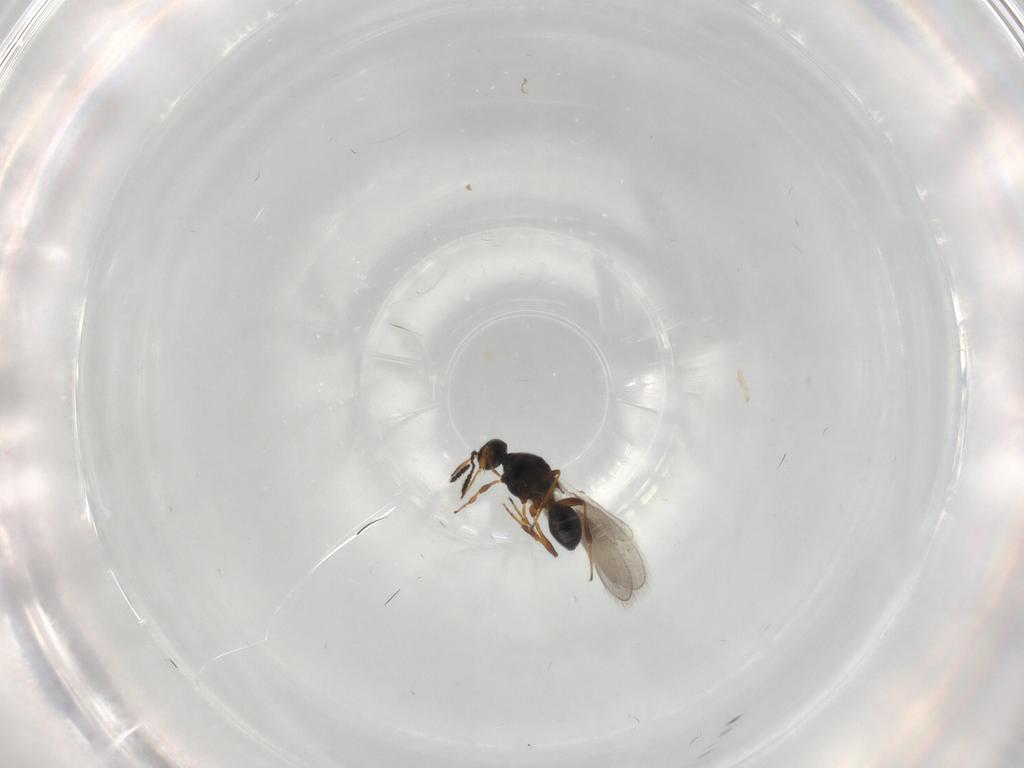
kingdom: Animalia
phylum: Arthropoda
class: Insecta
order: Hymenoptera
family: Platygastridae
